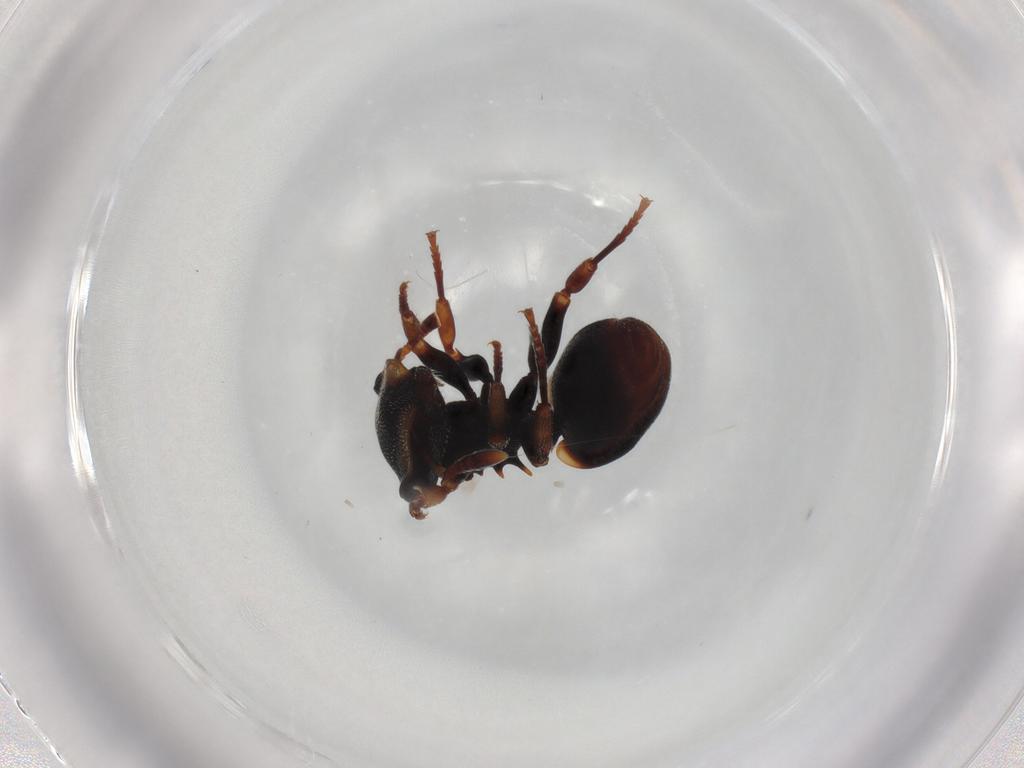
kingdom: Animalia
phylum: Arthropoda
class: Insecta
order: Hymenoptera
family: Formicidae
